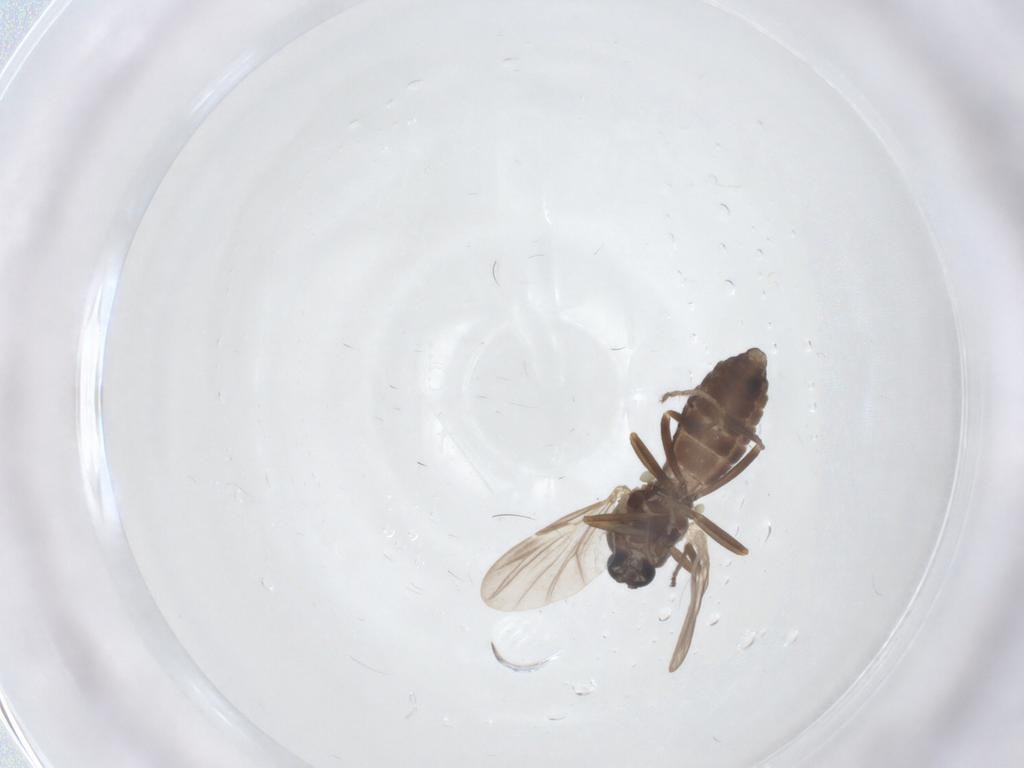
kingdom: Animalia
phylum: Arthropoda
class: Insecta
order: Diptera
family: Ceratopogonidae
